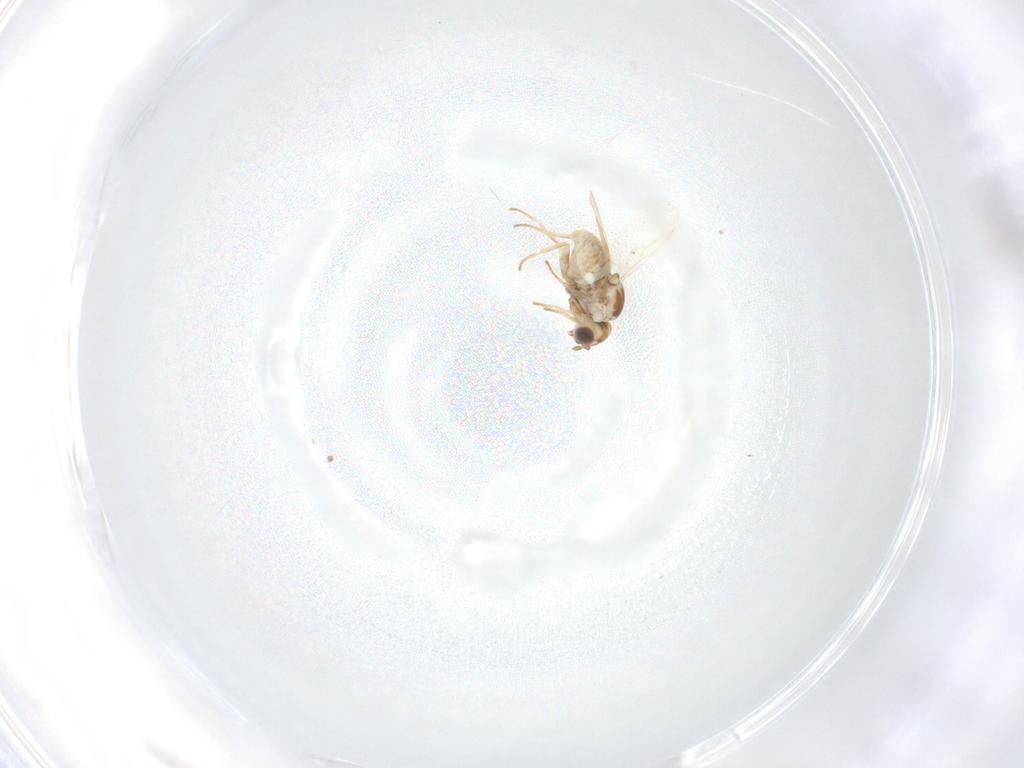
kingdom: Animalia
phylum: Arthropoda
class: Insecta
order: Diptera
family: Bombyliidae
